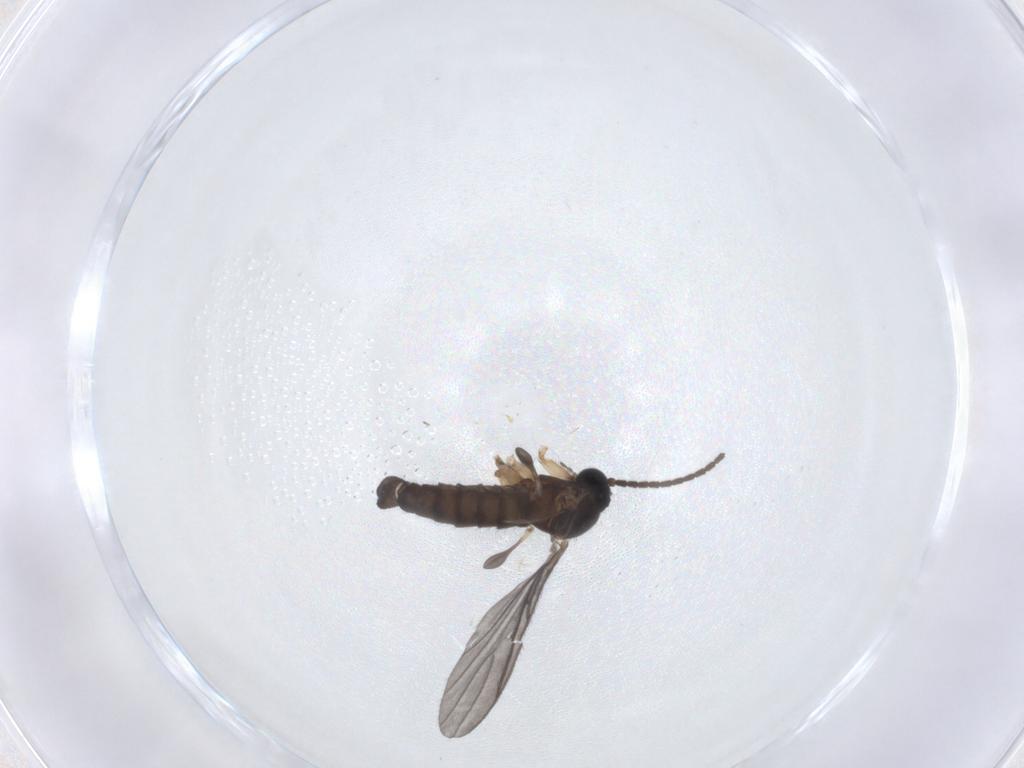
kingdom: Animalia
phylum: Arthropoda
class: Insecta
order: Diptera
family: Sciaridae
